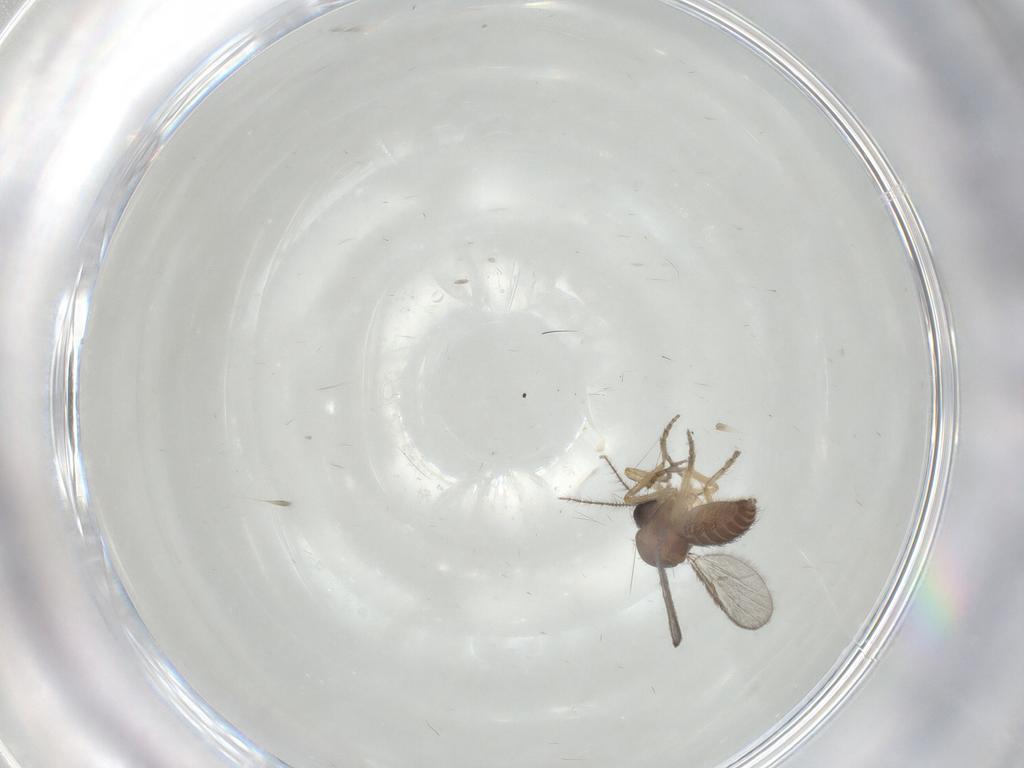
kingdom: Animalia
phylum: Arthropoda
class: Insecta
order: Diptera
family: Ceratopogonidae
